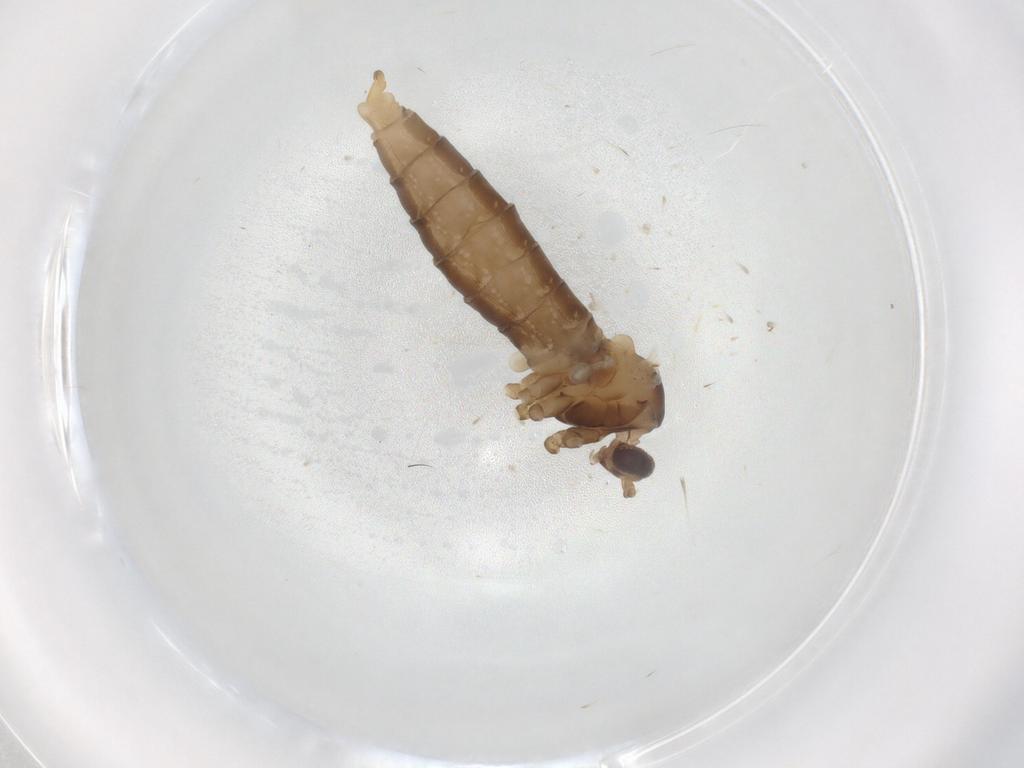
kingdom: Animalia
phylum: Arthropoda
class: Insecta
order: Diptera
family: Cecidomyiidae
